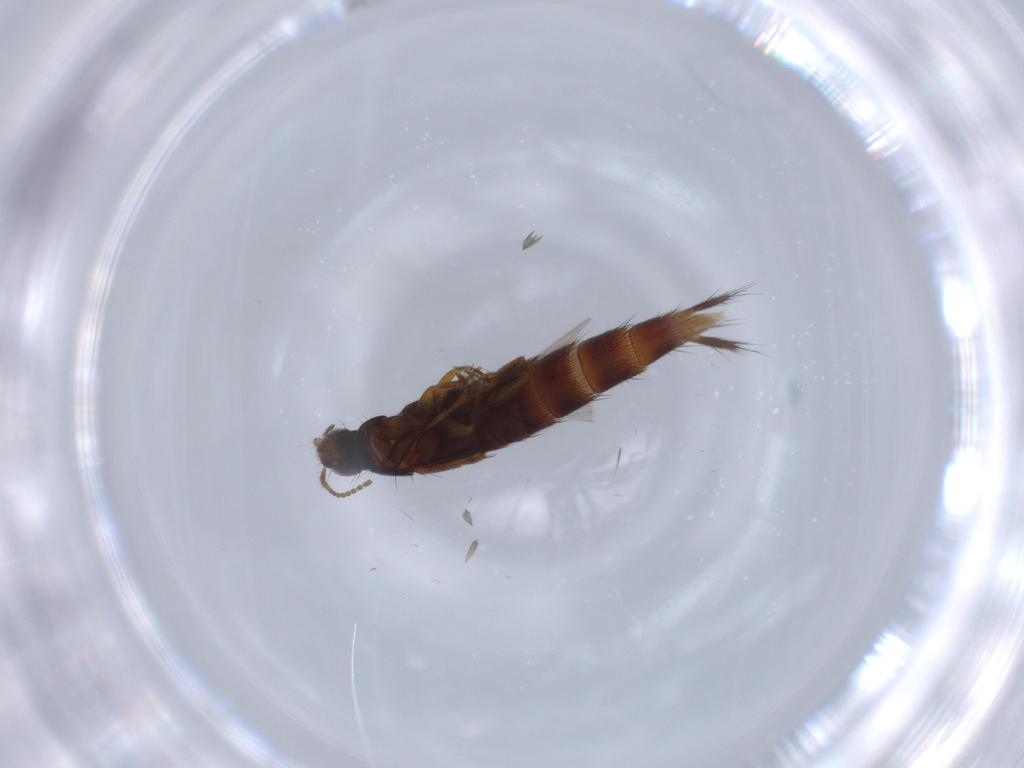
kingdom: Animalia
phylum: Arthropoda
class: Insecta
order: Coleoptera
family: Staphylinidae
